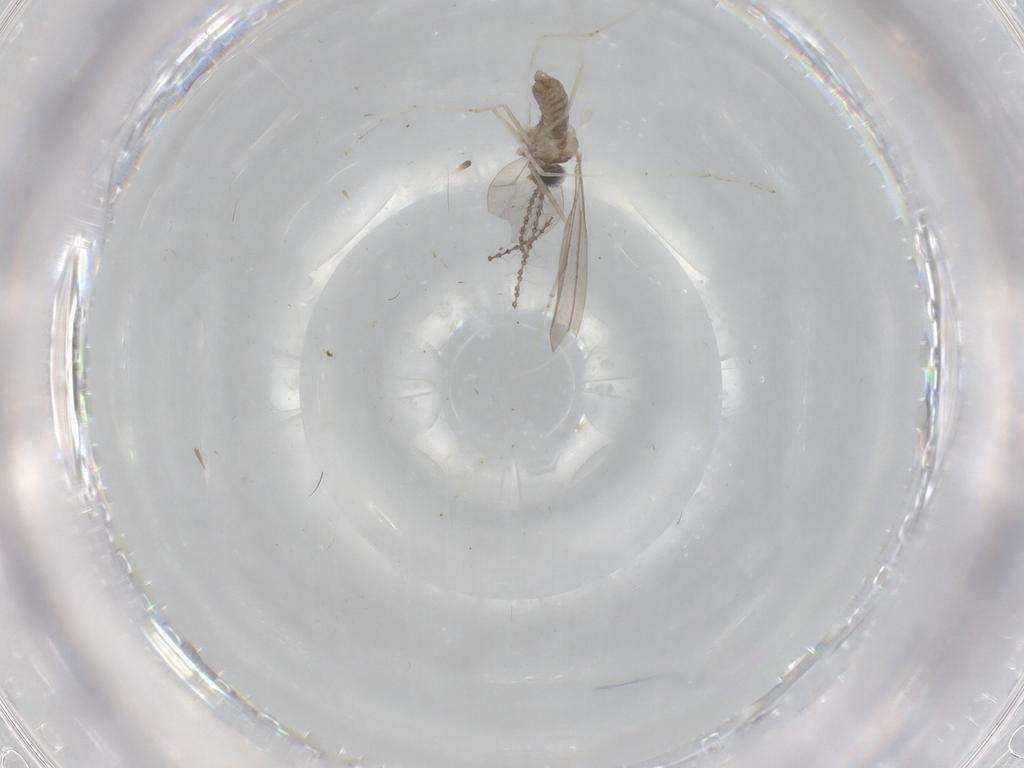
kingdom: Animalia
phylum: Arthropoda
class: Insecta
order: Diptera
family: Cecidomyiidae
